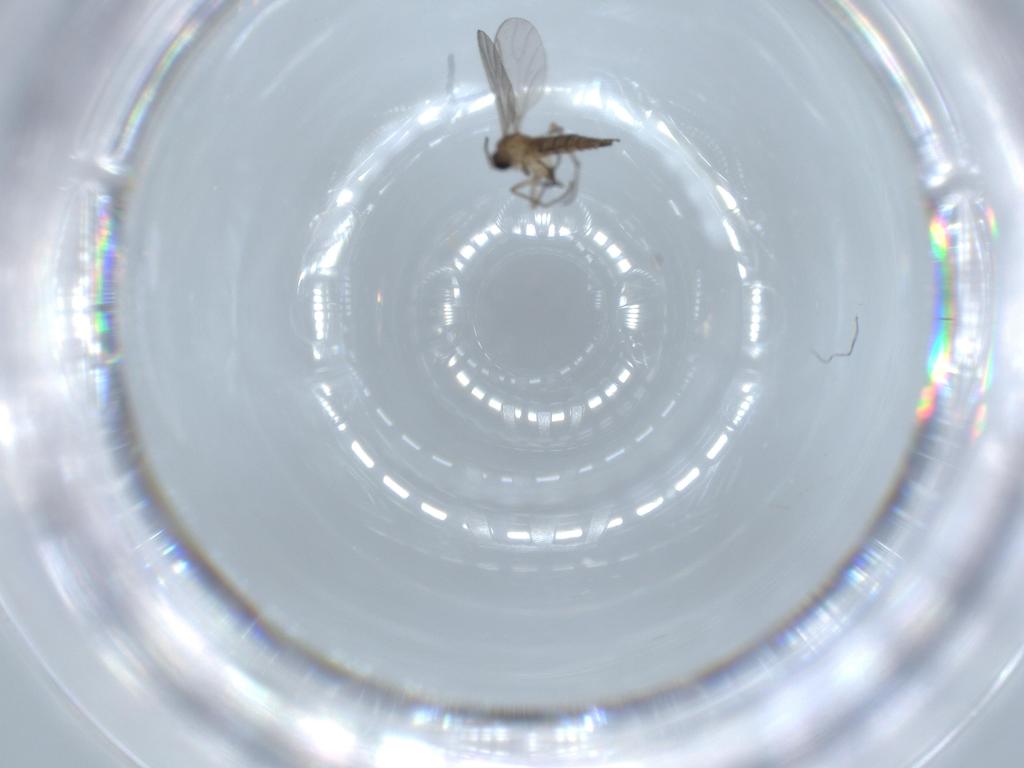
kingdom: Animalia
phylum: Arthropoda
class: Insecta
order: Diptera
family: Sciaridae
